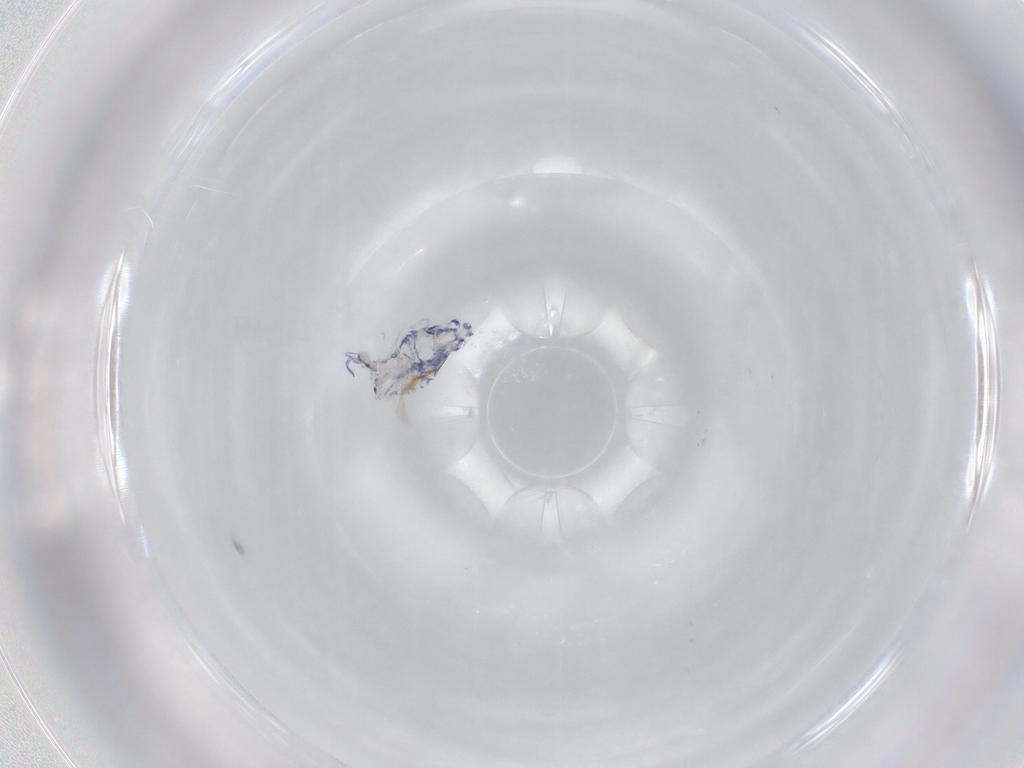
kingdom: Animalia
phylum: Arthropoda
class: Collembola
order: Entomobryomorpha
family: Entomobryidae
